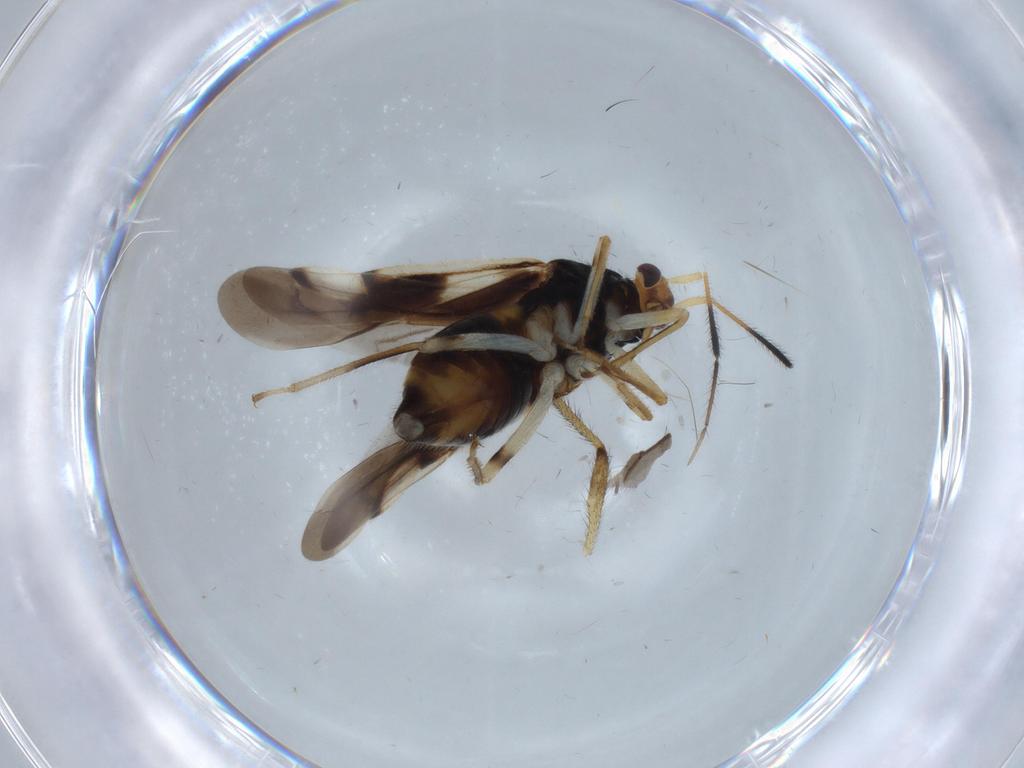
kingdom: Animalia
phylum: Arthropoda
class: Insecta
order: Hemiptera
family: Miridae
